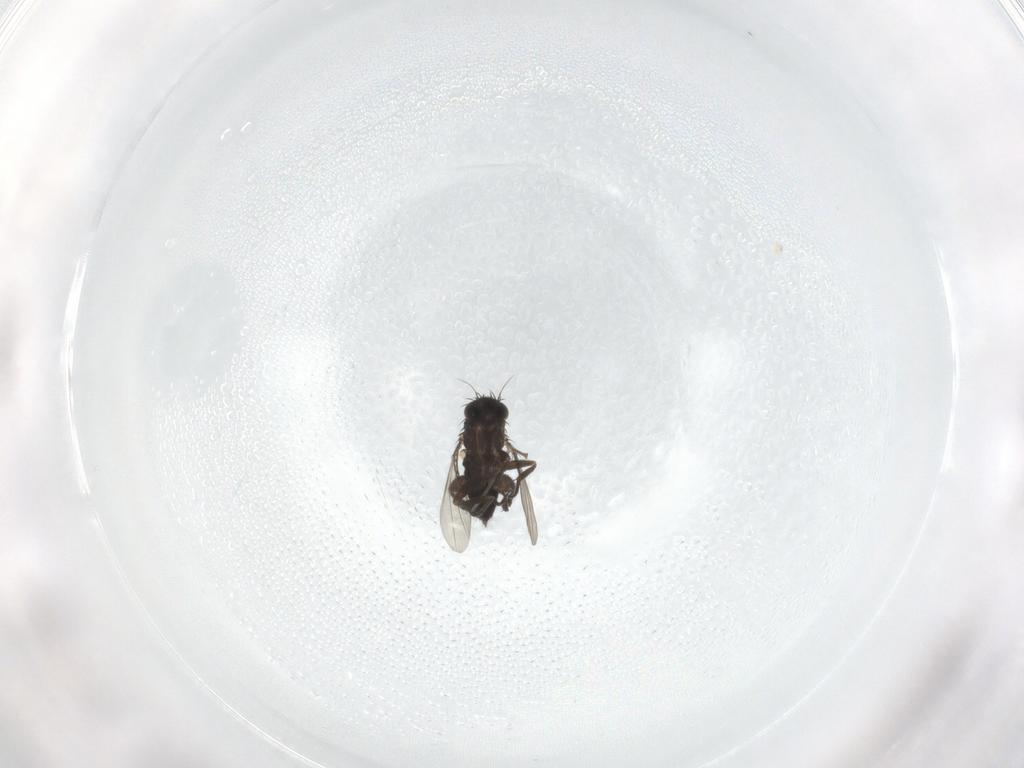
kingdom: Animalia
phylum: Arthropoda
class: Insecta
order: Diptera
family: Phoridae
